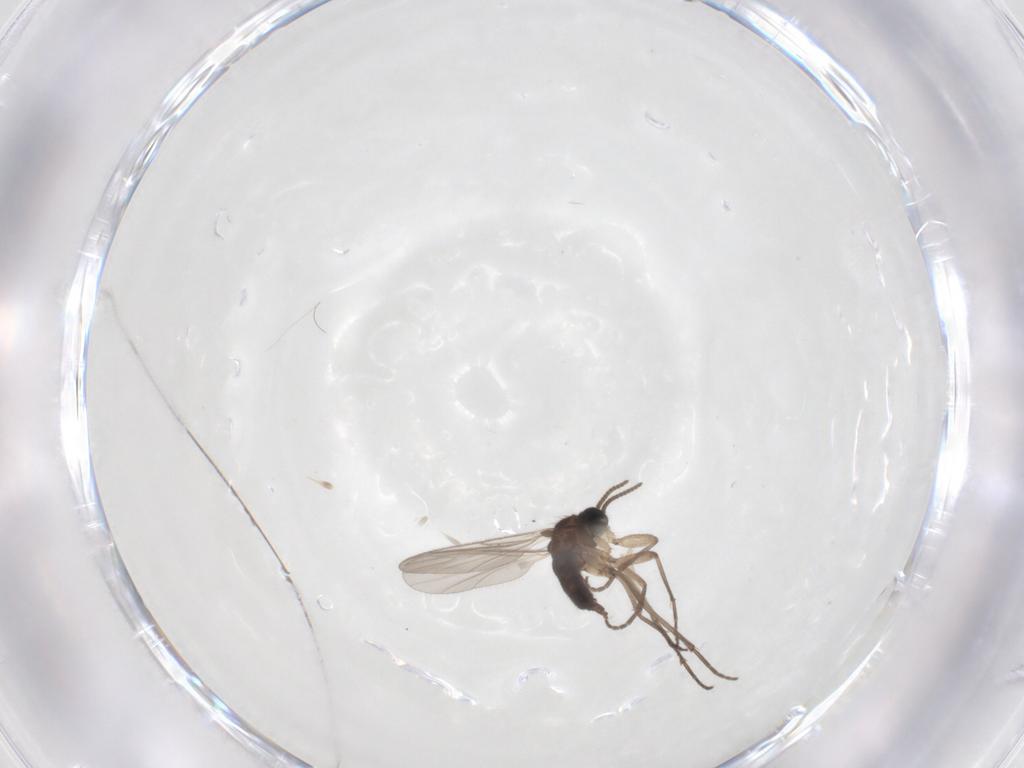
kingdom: Animalia
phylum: Arthropoda
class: Insecta
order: Diptera
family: Sciaridae
